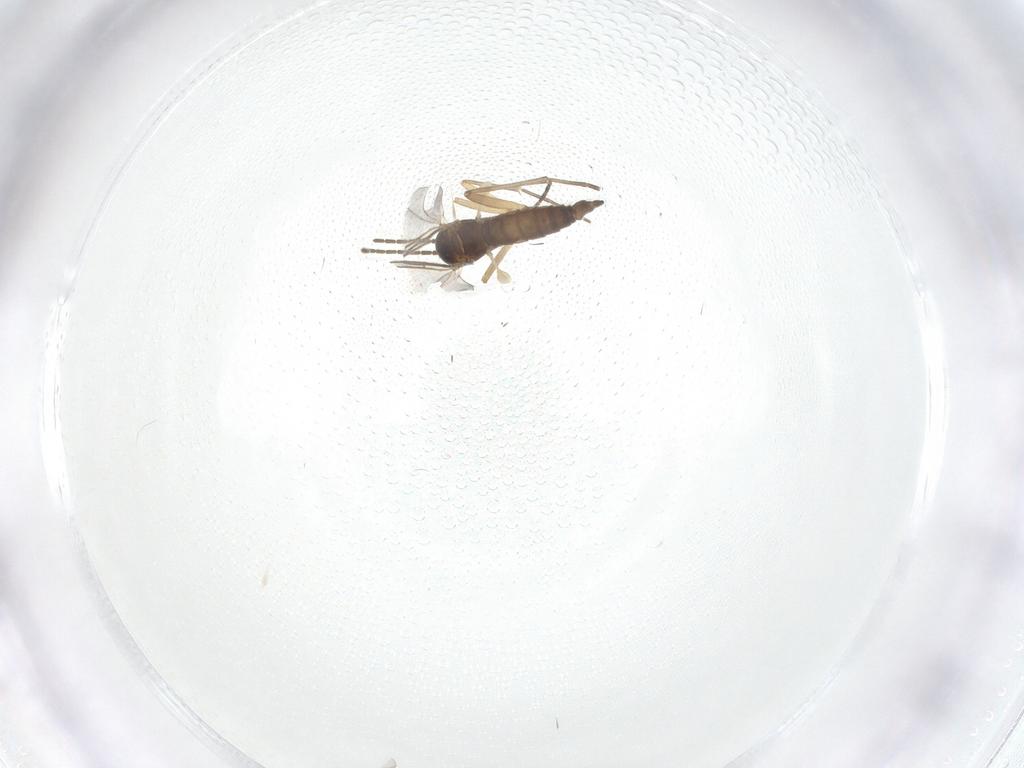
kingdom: Animalia
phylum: Arthropoda
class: Insecta
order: Diptera
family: Sciaridae
